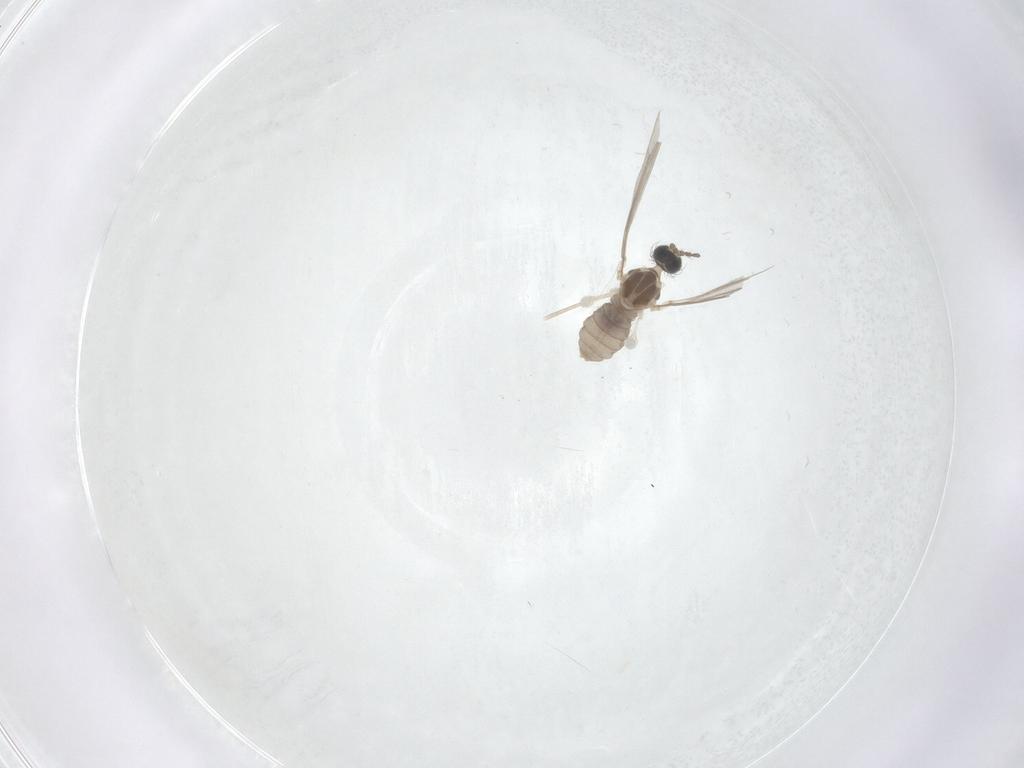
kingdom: Animalia
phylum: Arthropoda
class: Insecta
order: Diptera
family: Cecidomyiidae
